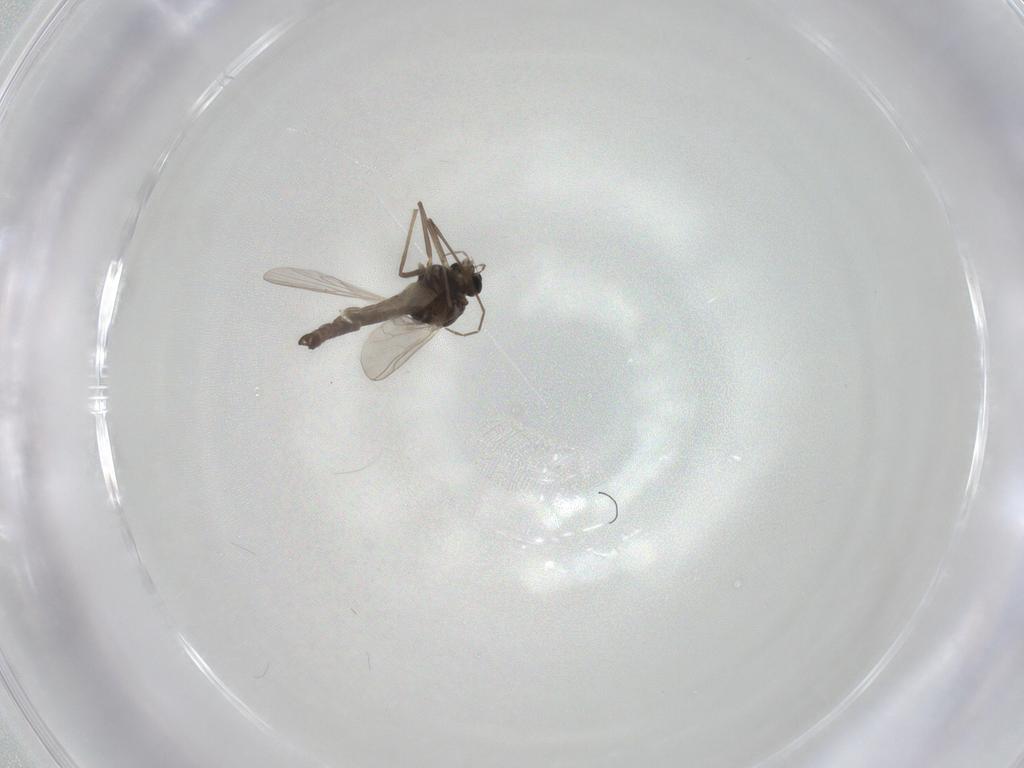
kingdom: Animalia
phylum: Arthropoda
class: Insecta
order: Diptera
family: Chironomidae
